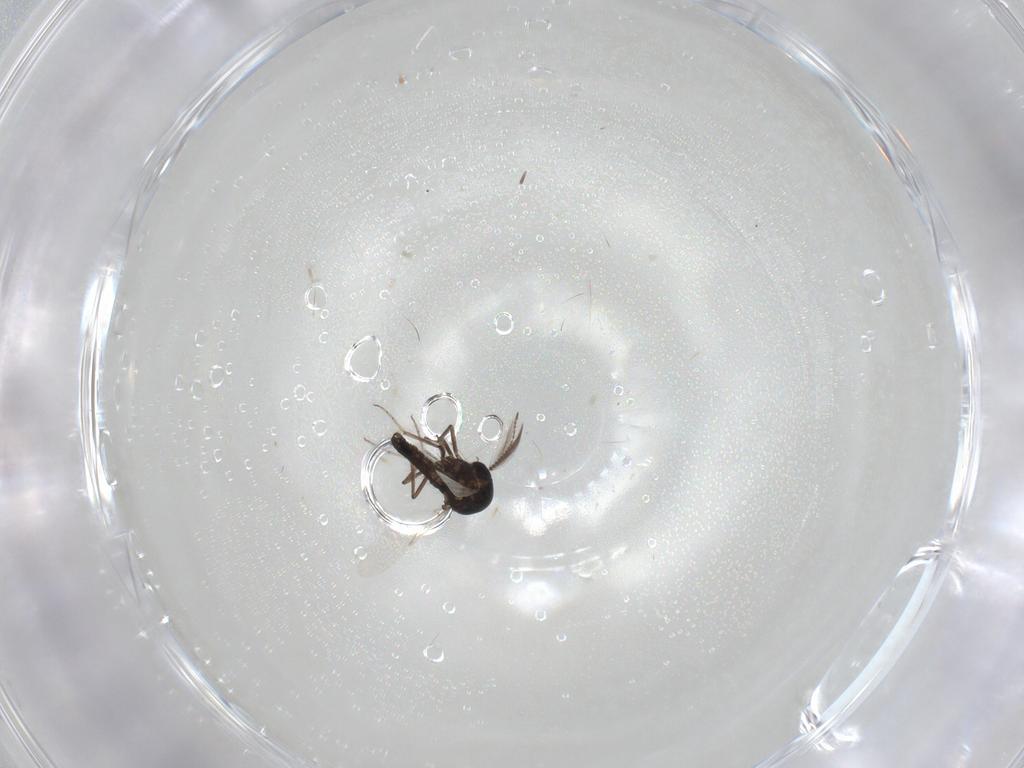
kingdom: Animalia
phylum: Arthropoda
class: Insecta
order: Diptera
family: Ceratopogonidae
